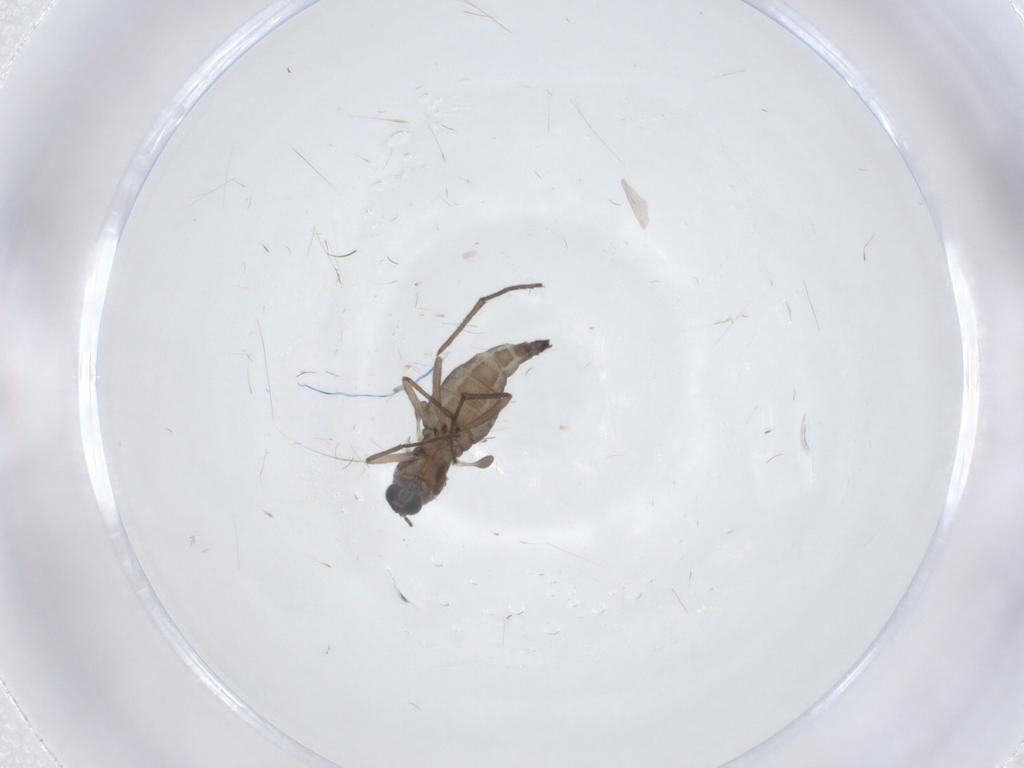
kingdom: Animalia
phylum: Arthropoda
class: Insecta
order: Diptera
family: Sciaridae
